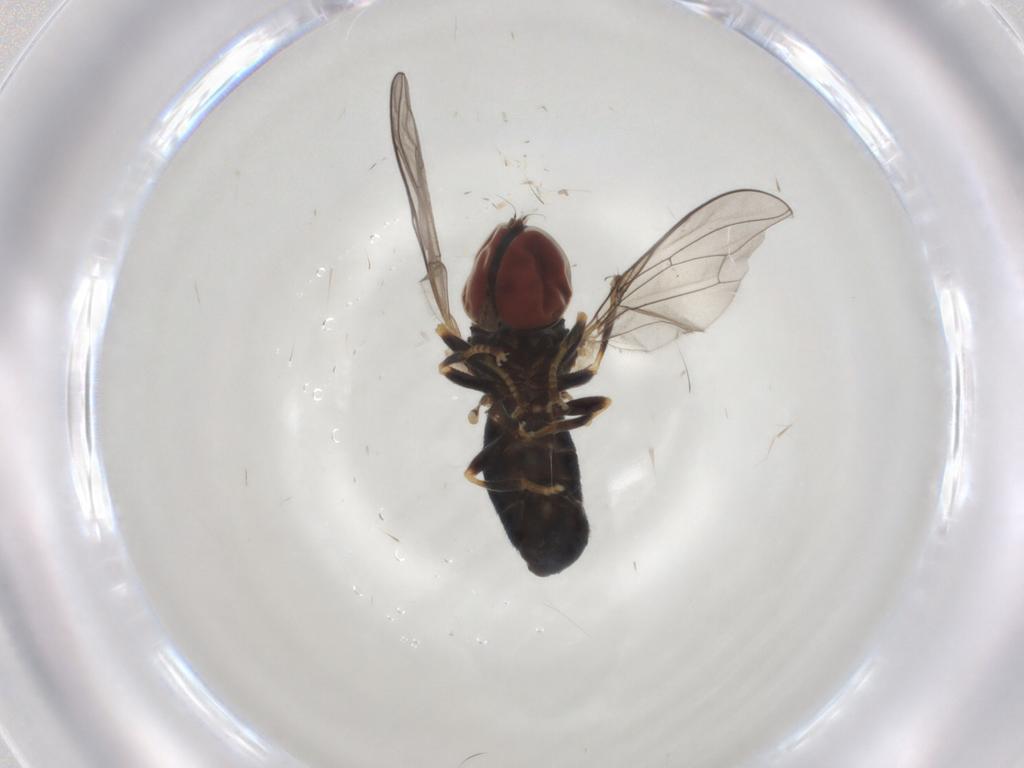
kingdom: Animalia
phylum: Arthropoda
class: Insecta
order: Diptera
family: Pipunculidae
